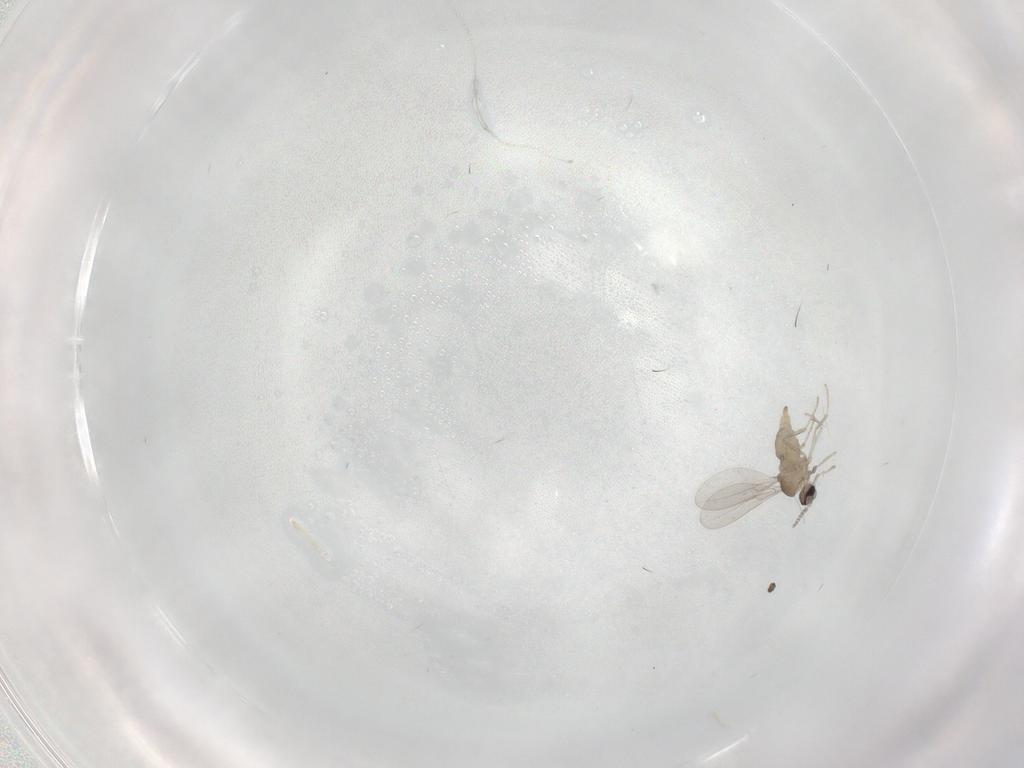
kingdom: Animalia
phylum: Arthropoda
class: Insecta
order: Diptera
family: Cecidomyiidae
